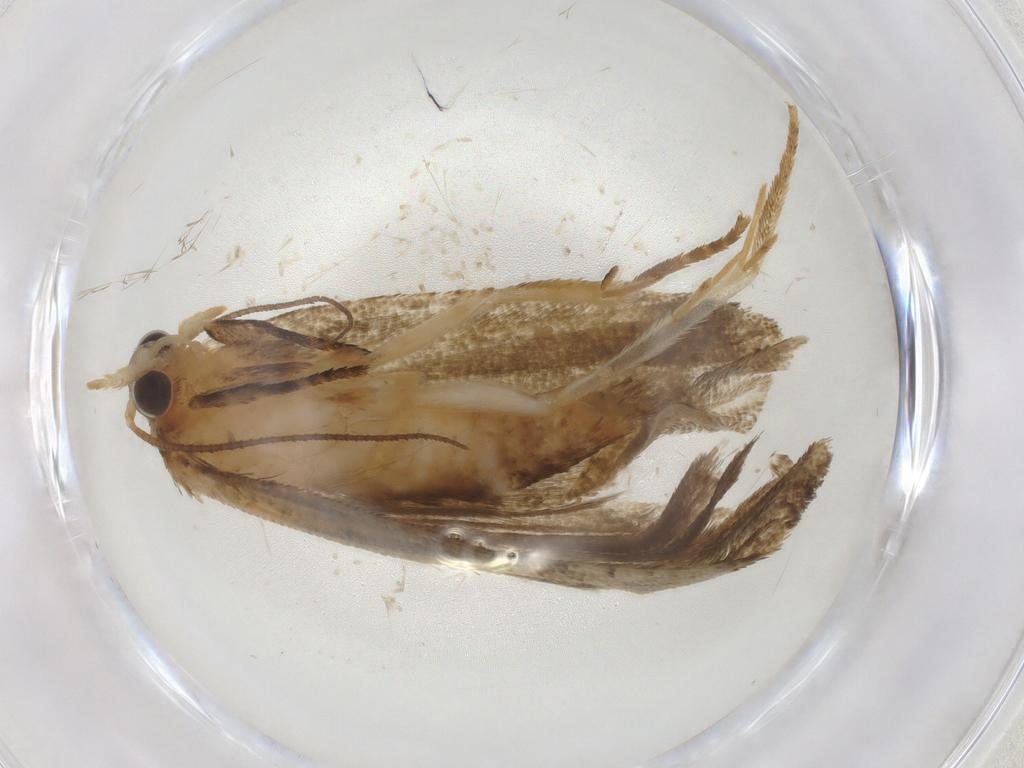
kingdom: Animalia
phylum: Arthropoda
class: Insecta
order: Lepidoptera
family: Tortricidae
